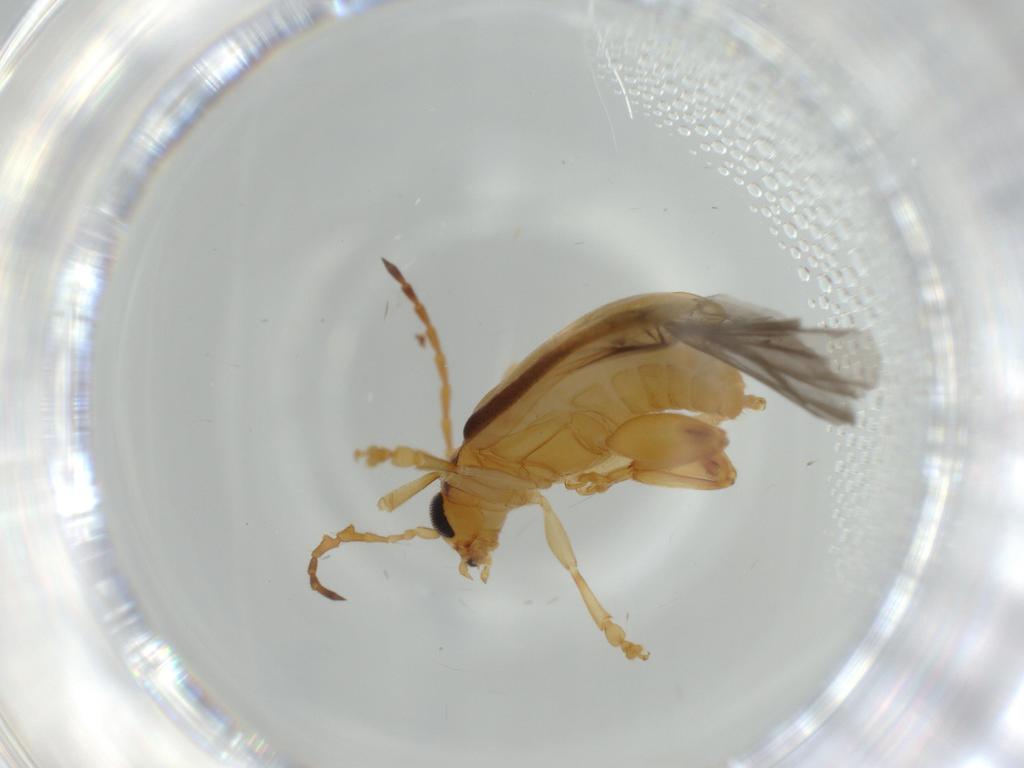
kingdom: Animalia
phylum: Arthropoda
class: Insecta
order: Coleoptera
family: Chrysomelidae
